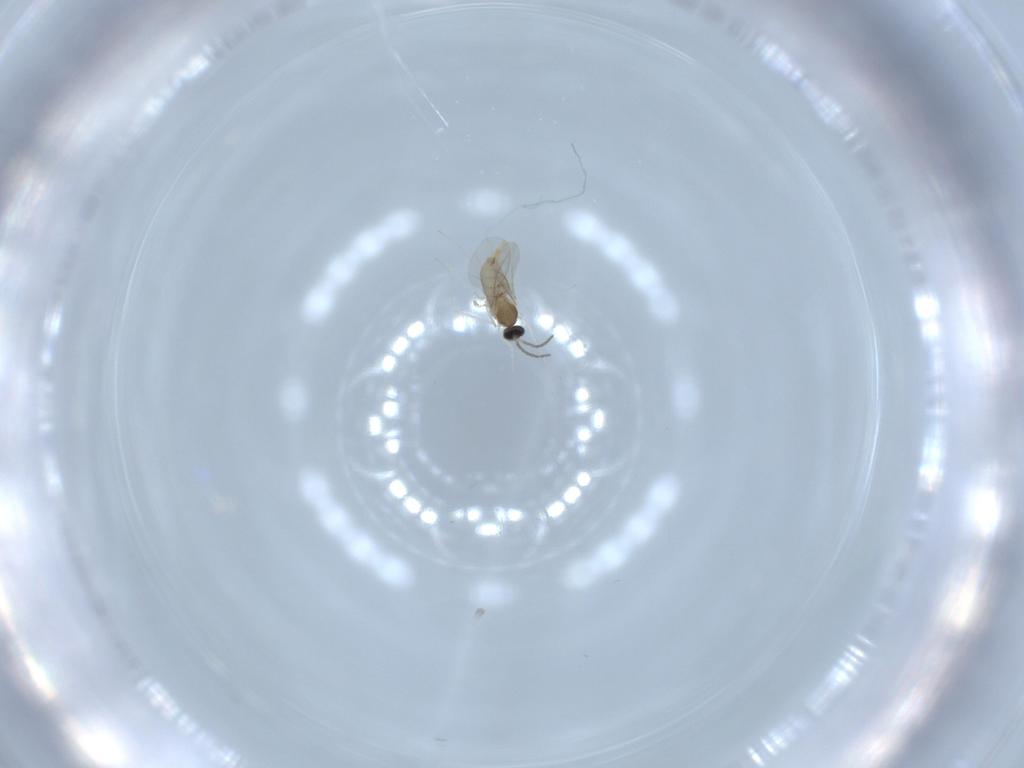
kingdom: Animalia
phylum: Arthropoda
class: Insecta
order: Diptera
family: Cecidomyiidae
